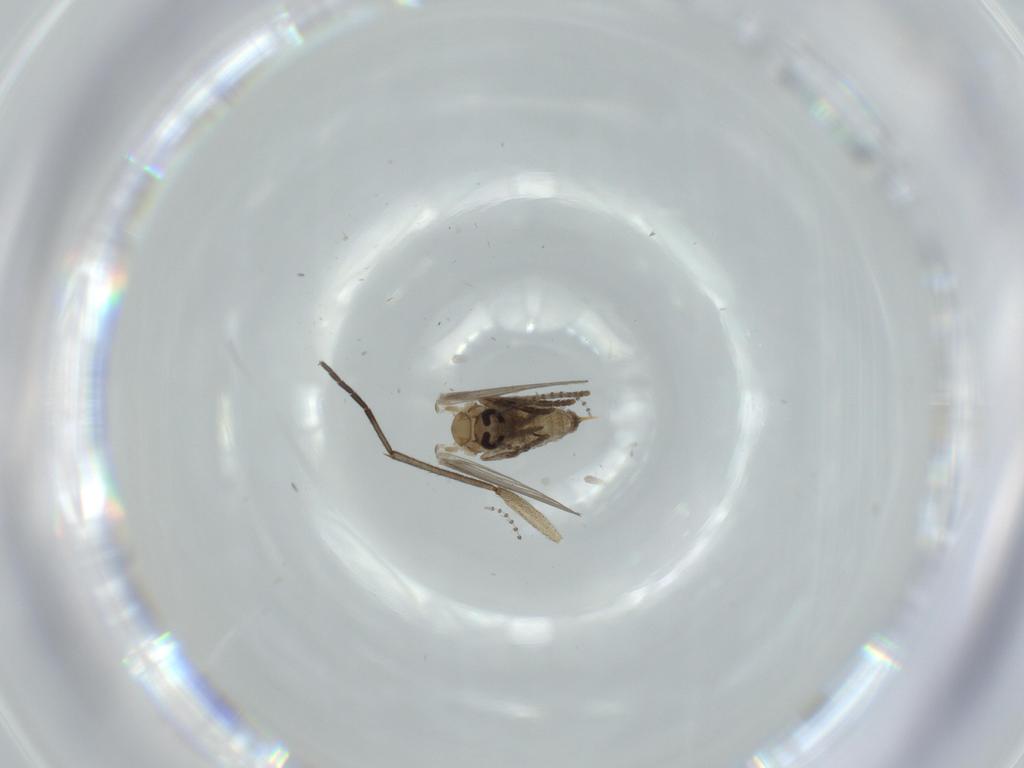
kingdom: Animalia
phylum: Arthropoda
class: Insecta
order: Diptera
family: Psychodidae
